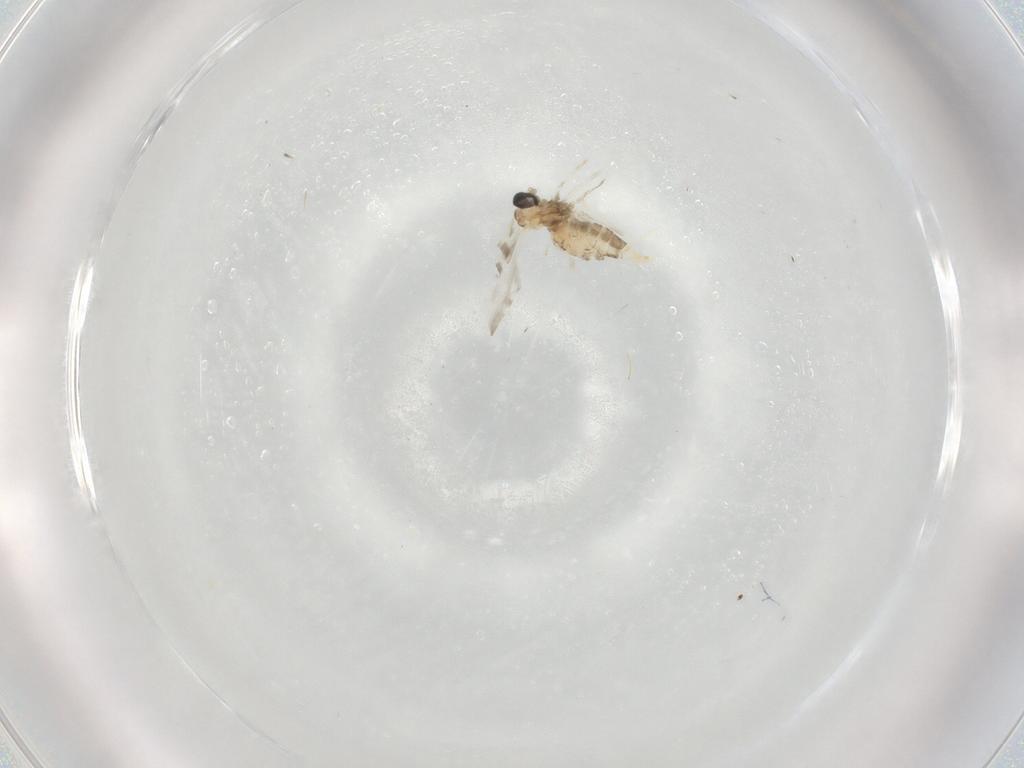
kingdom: Animalia
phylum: Arthropoda
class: Insecta
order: Diptera
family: Cecidomyiidae
